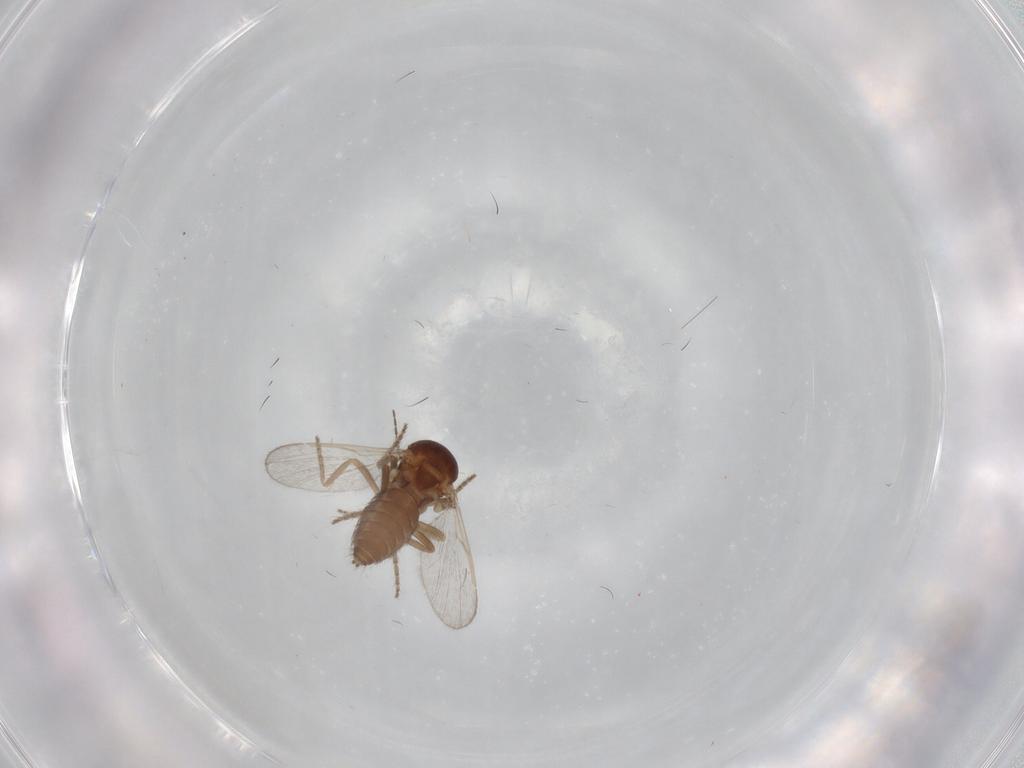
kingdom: Animalia
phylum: Arthropoda
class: Insecta
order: Diptera
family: Ceratopogonidae
